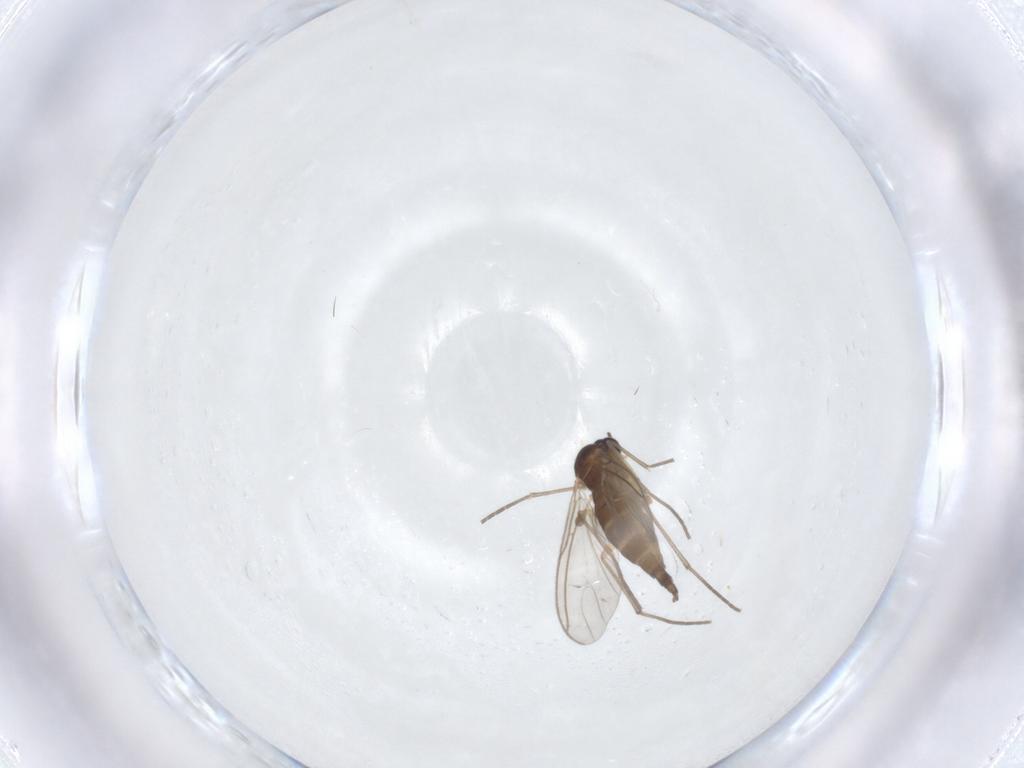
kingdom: Animalia
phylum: Arthropoda
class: Insecta
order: Diptera
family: Sciaridae
